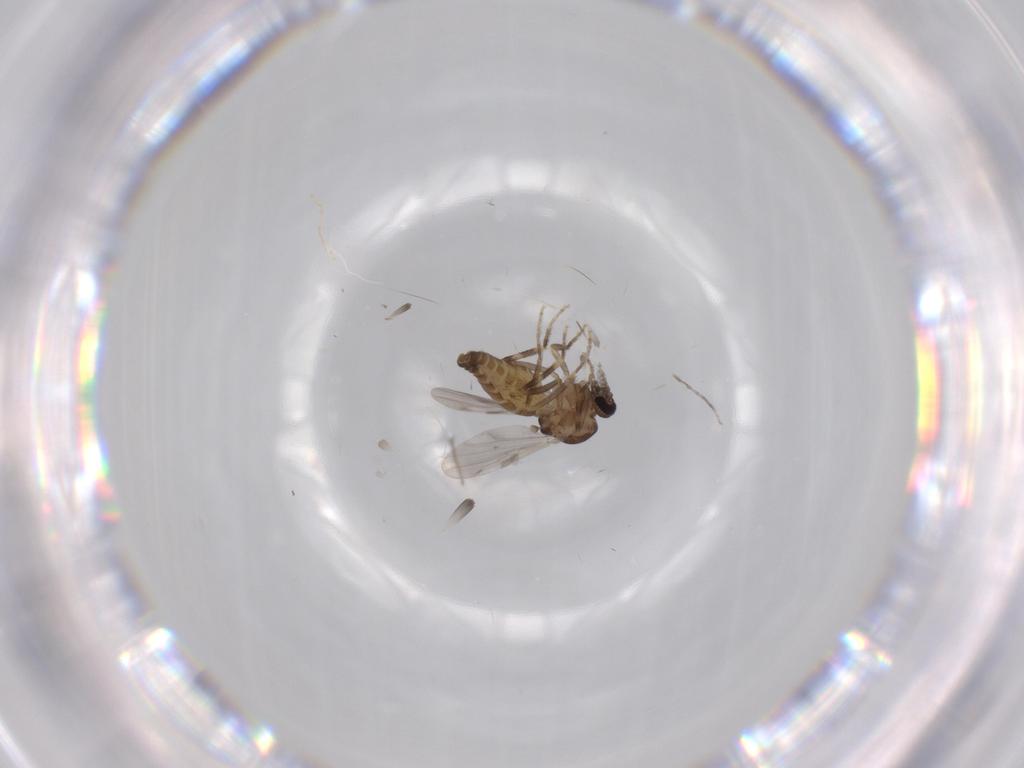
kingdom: Animalia
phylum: Arthropoda
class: Insecta
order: Diptera
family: Ceratopogonidae
